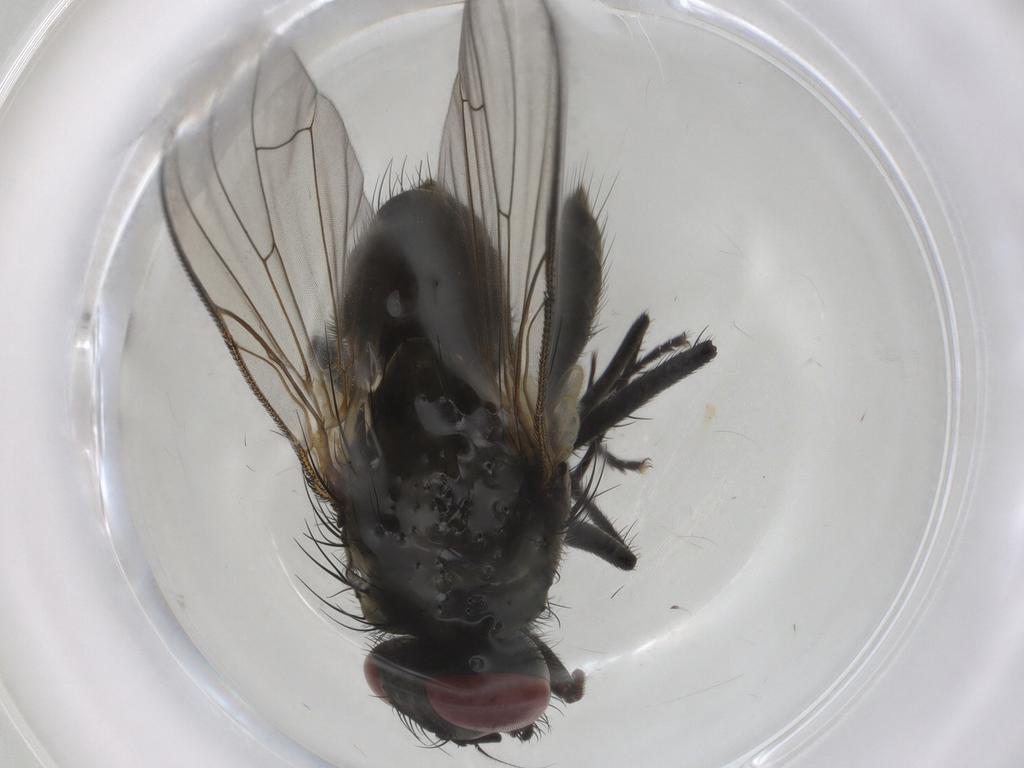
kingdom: Animalia
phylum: Arthropoda
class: Insecta
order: Diptera
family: Muscidae
